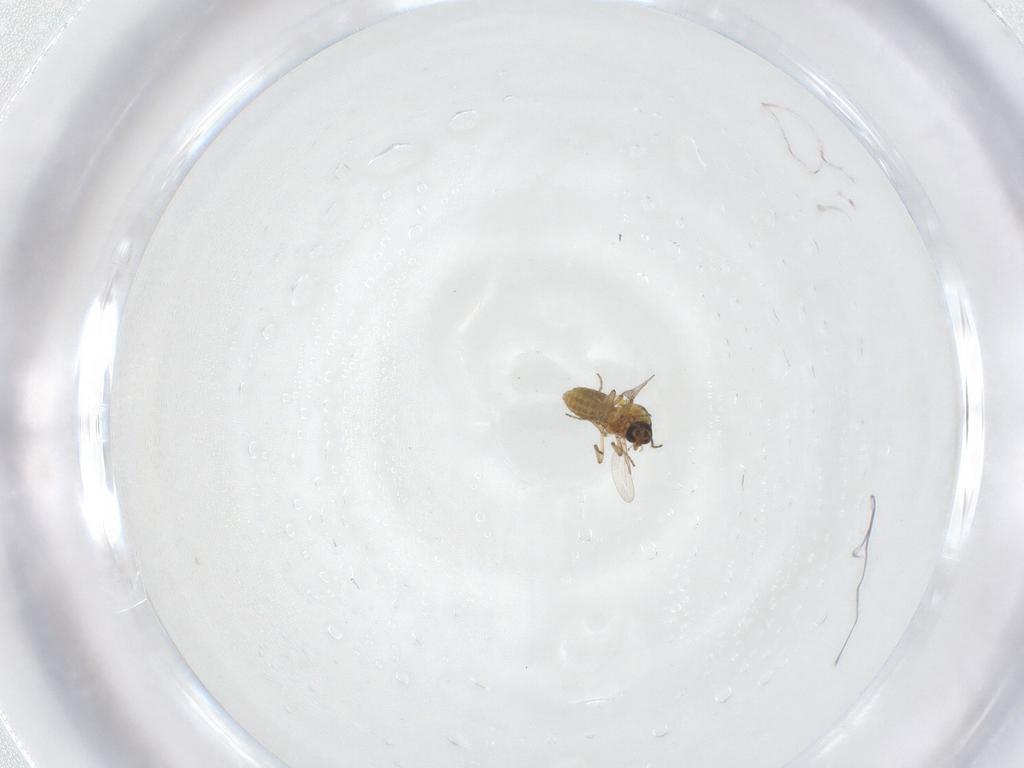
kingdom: Animalia
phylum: Arthropoda
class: Insecta
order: Diptera
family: Ceratopogonidae
